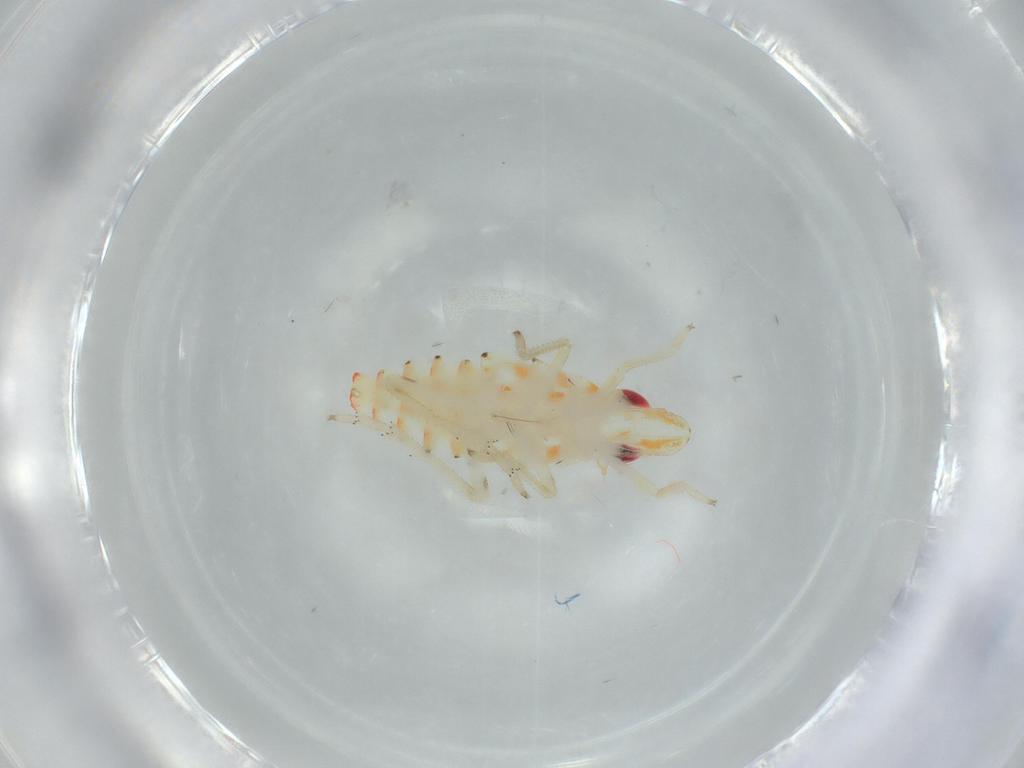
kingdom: Animalia
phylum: Arthropoda
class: Insecta
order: Hemiptera
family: Tropiduchidae
